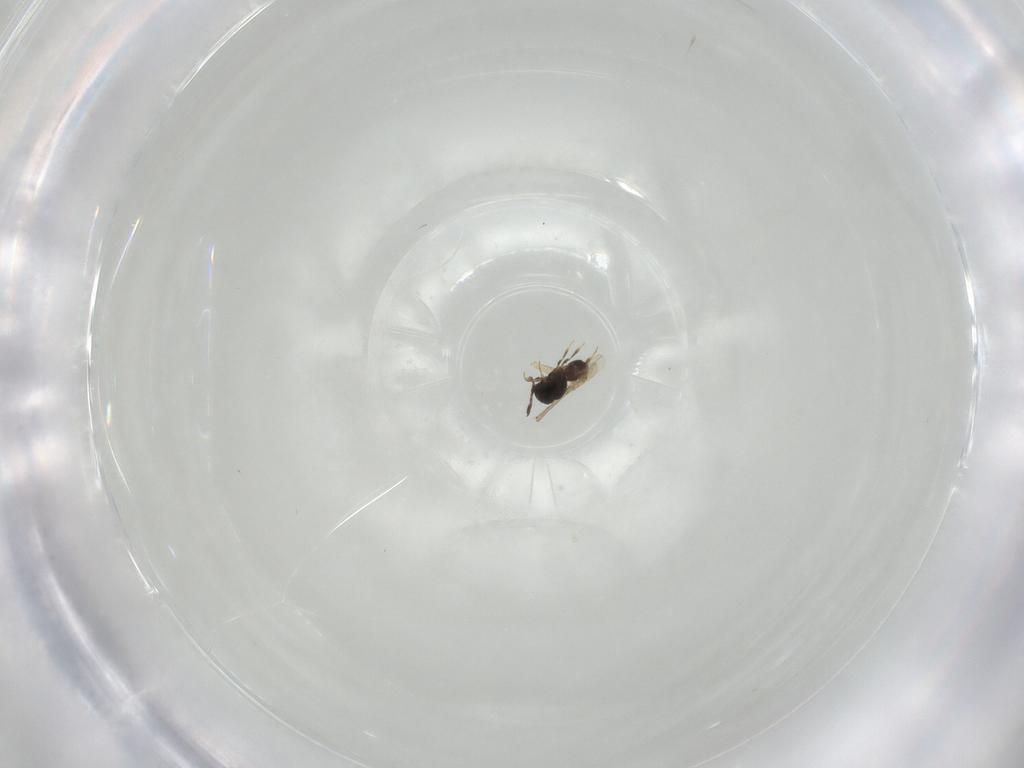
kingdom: Animalia
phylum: Arthropoda
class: Insecta
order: Hymenoptera
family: Scelionidae
